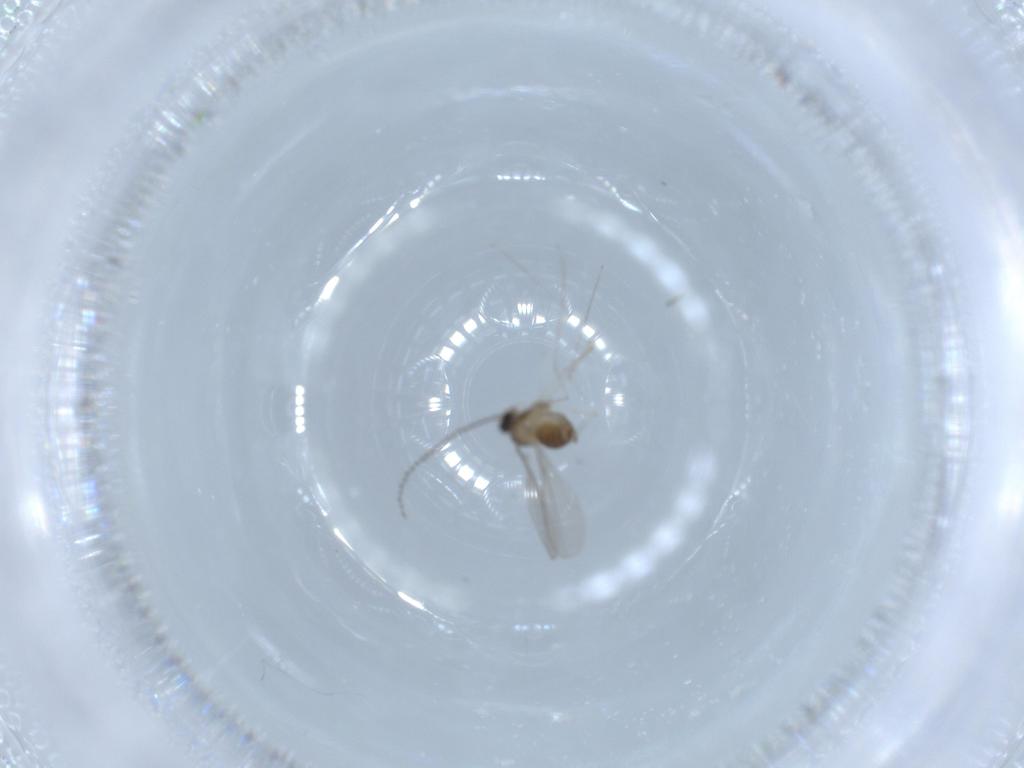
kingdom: Animalia
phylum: Arthropoda
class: Insecta
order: Diptera
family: Cecidomyiidae
